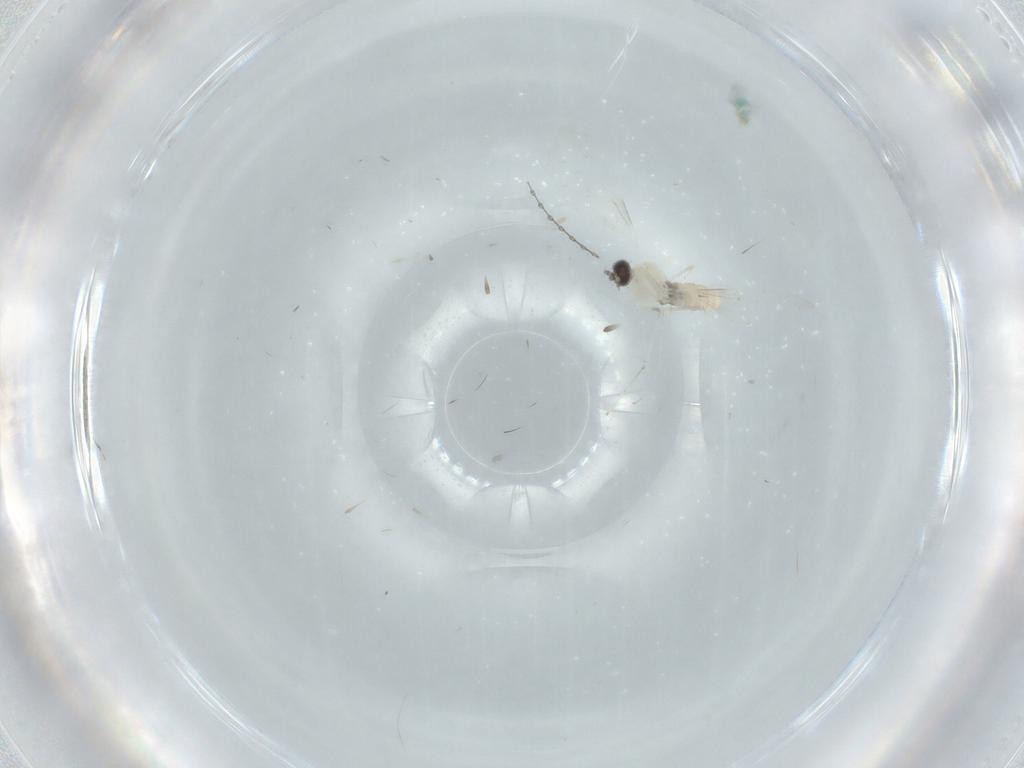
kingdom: Animalia
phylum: Arthropoda
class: Insecta
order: Diptera
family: Cecidomyiidae
